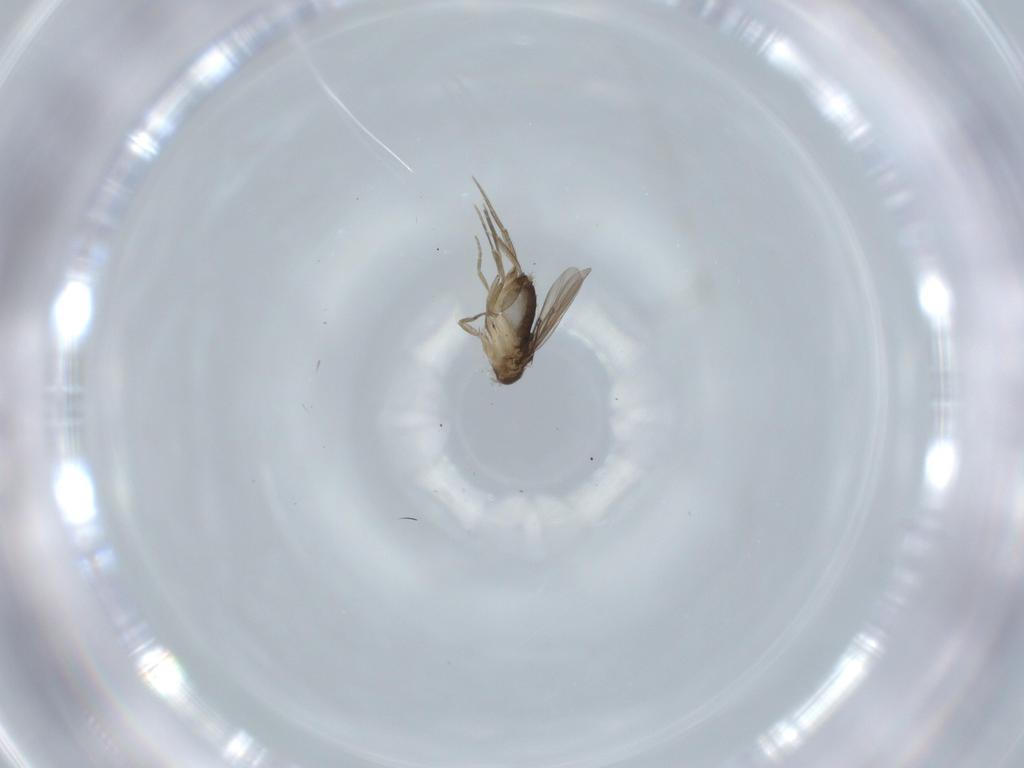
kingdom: Animalia
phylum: Arthropoda
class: Insecta
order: Diptera
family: Phoridae
